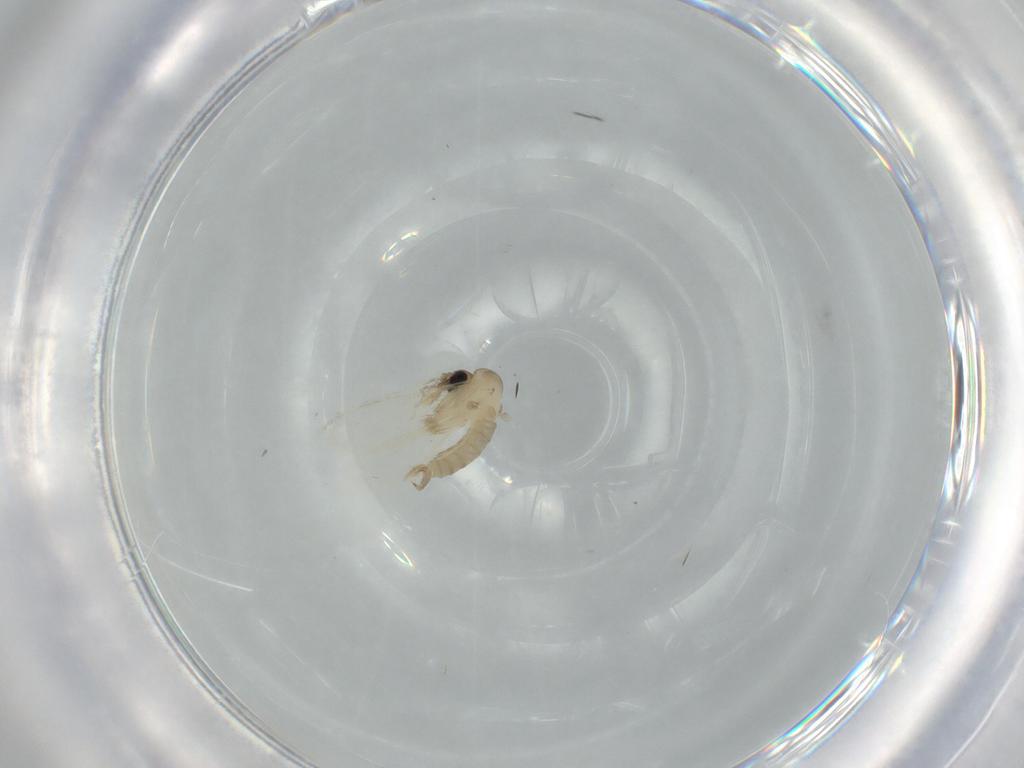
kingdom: Animalia
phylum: Arthropoda
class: Insecta
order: Diptera
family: Psychodidae
